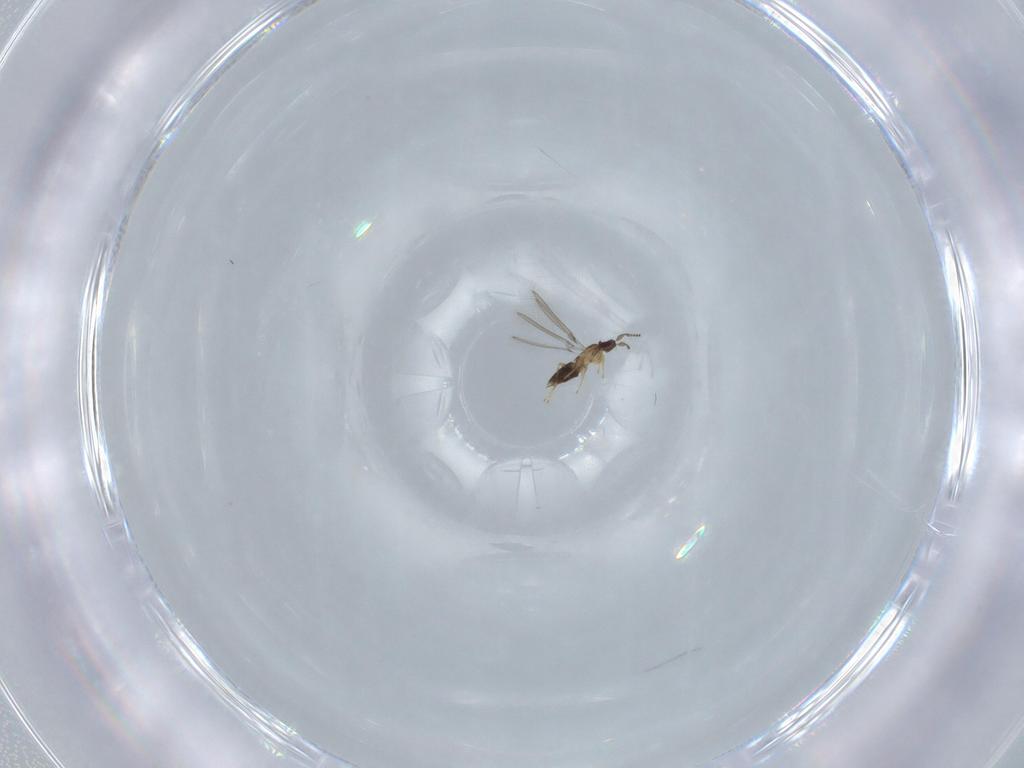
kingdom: Animalia
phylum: Arthropoda
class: Insecta
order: Hymenoptera
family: Mymaridae
